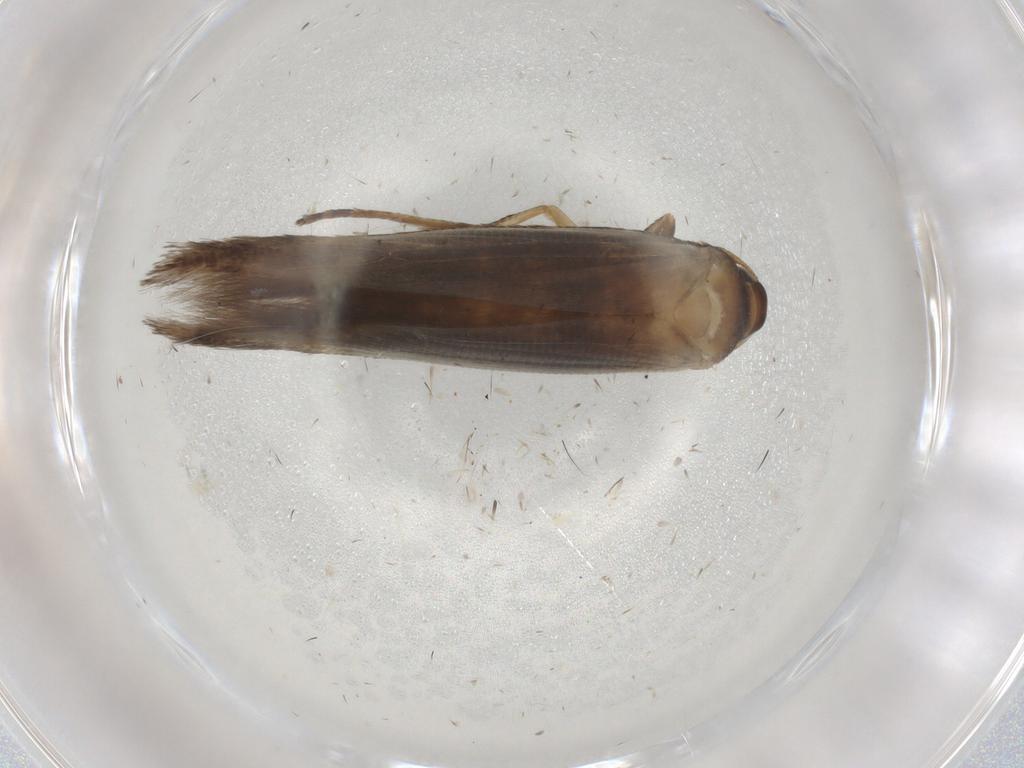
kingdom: Animalia
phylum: Arthropoda
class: Insecta
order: Lepidoptera
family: Cosmopterigidae
